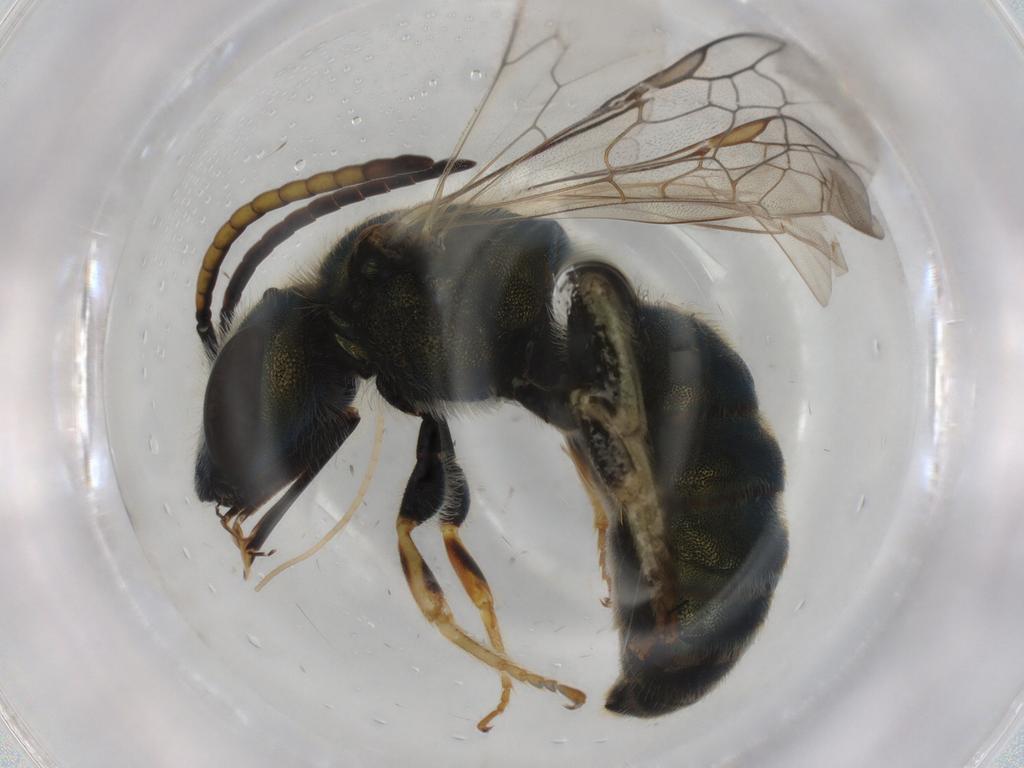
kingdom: Animalia
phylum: Arthropoda
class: Insecta
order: Hymenoptera
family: Halictidae
